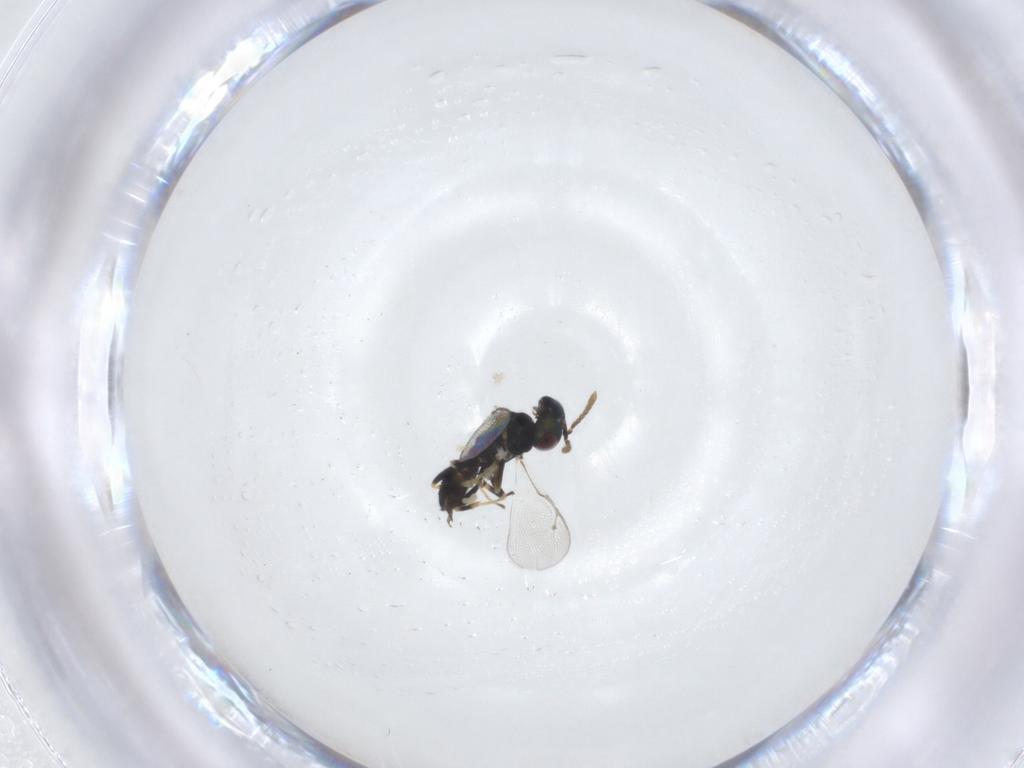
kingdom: Animalia
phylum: Arthropoda
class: Insecta
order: Hymenoptera
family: Pteromalidae
